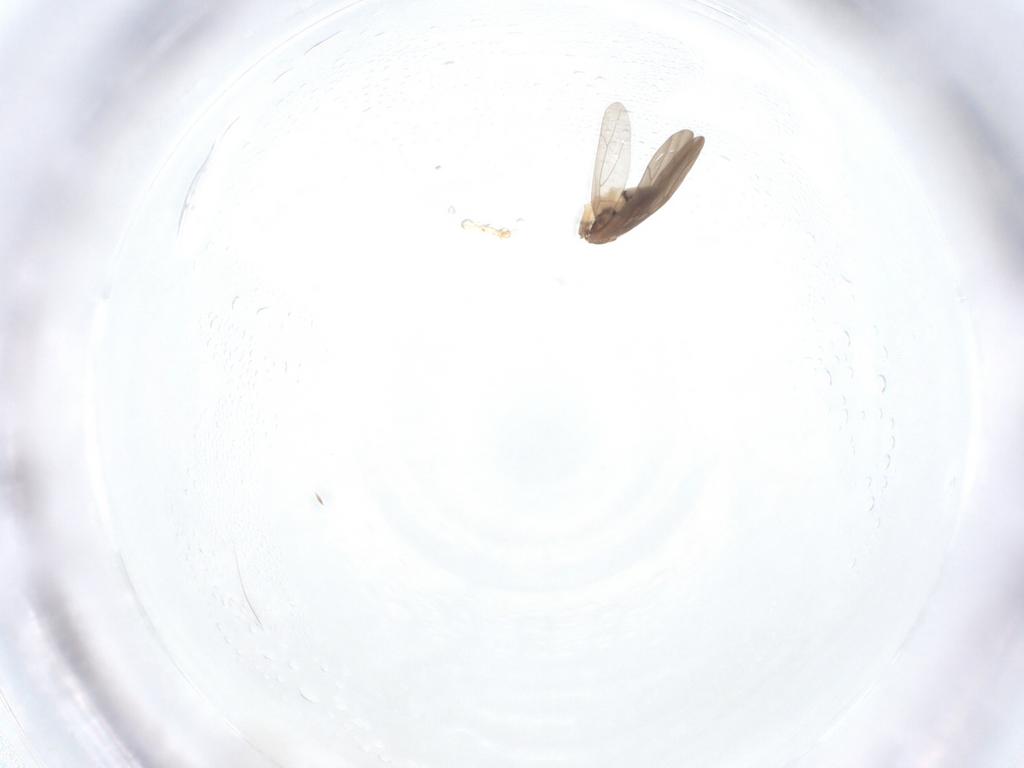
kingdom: Animalia
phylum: Arthropoda
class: Insecta
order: Psocodea
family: Lepidopsocidae
